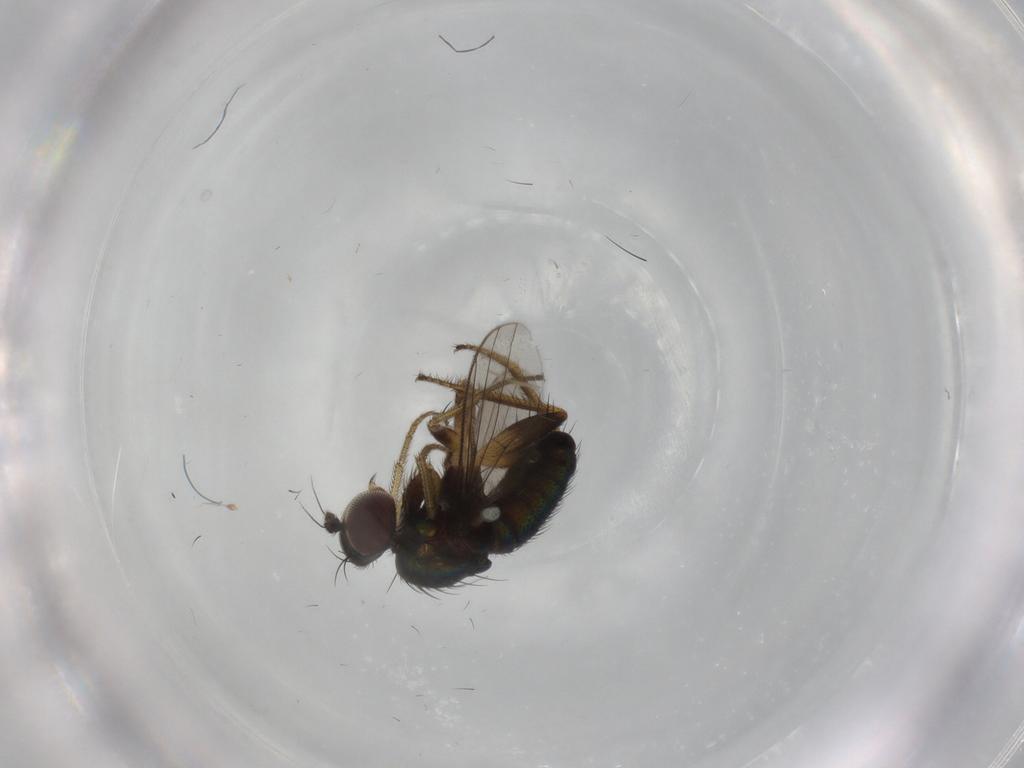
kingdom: Animalia
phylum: Arthropoda
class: Insecta
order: Diptera
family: Dolichopodidae
